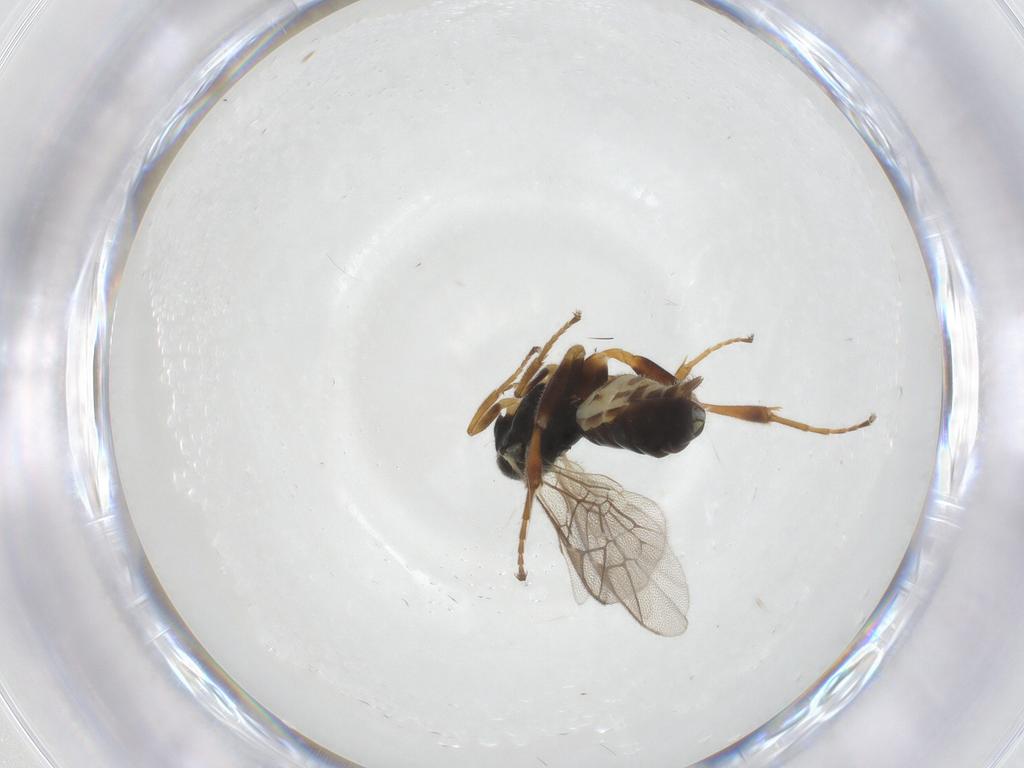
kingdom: Animalia
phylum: Arthropoda
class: Insecta
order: Hymenoptera
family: Ichneumonidae
